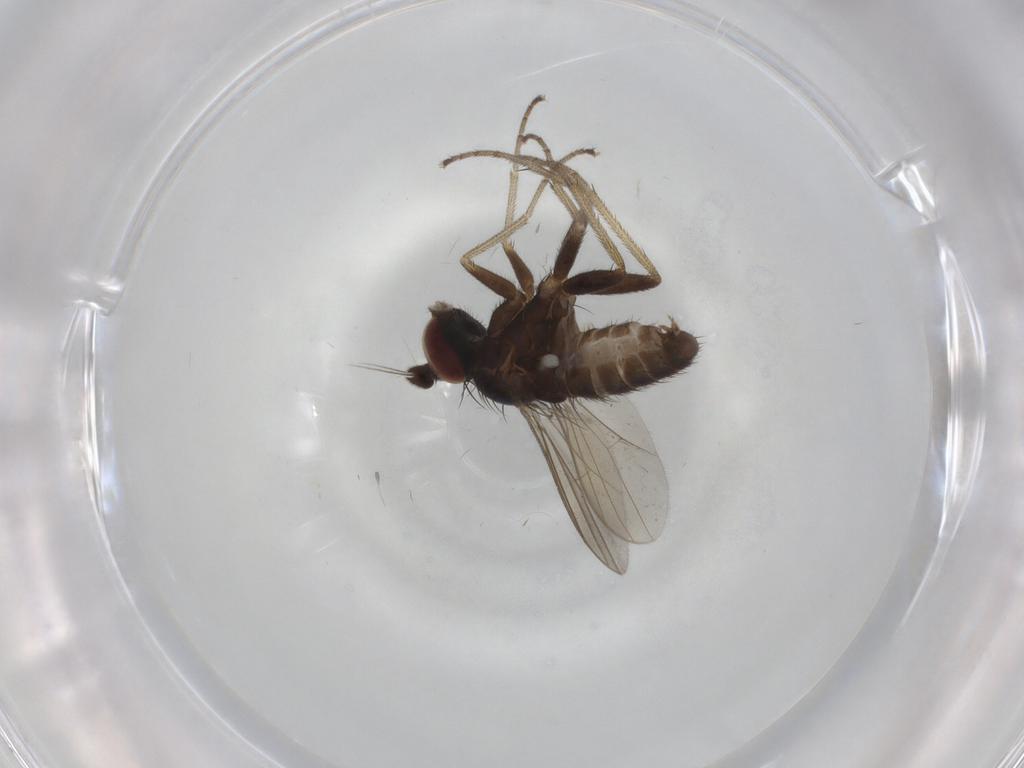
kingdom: Animalia
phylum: Arthropoda
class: Insecta
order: Diptera
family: Dolichopodidae
